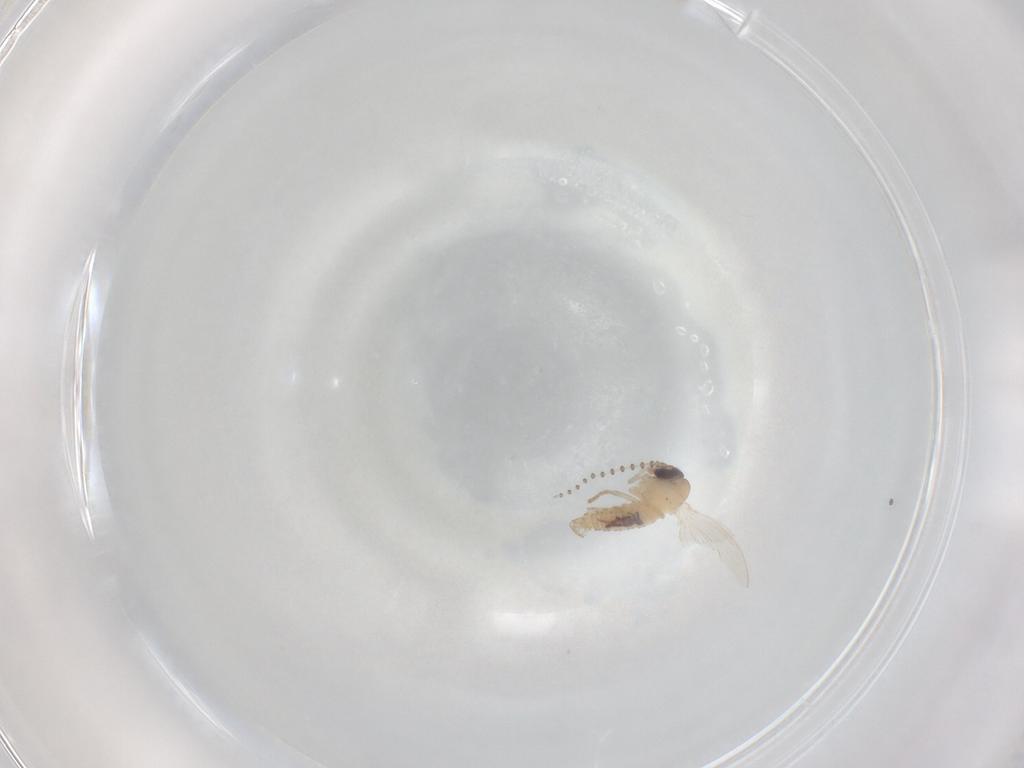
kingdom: Animalia
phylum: Arthropoda
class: Insecta
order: Diptera
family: Psychodidae
